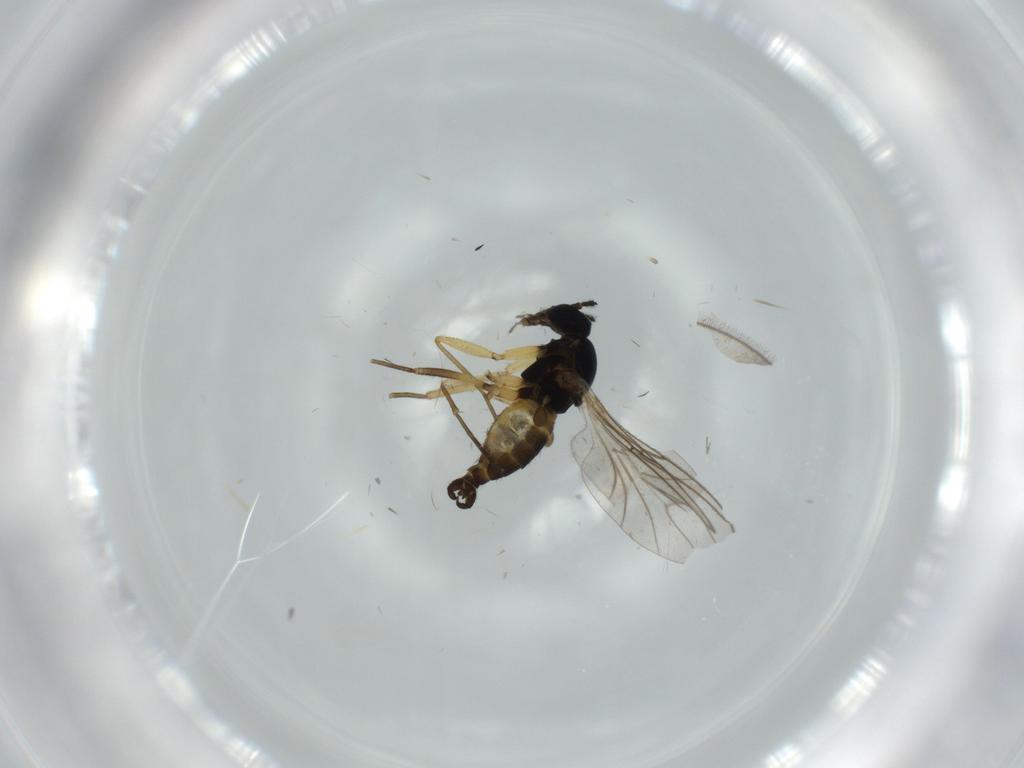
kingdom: Animalia
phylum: Arthropoda
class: Insecta
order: Diptera
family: Sciaridae
